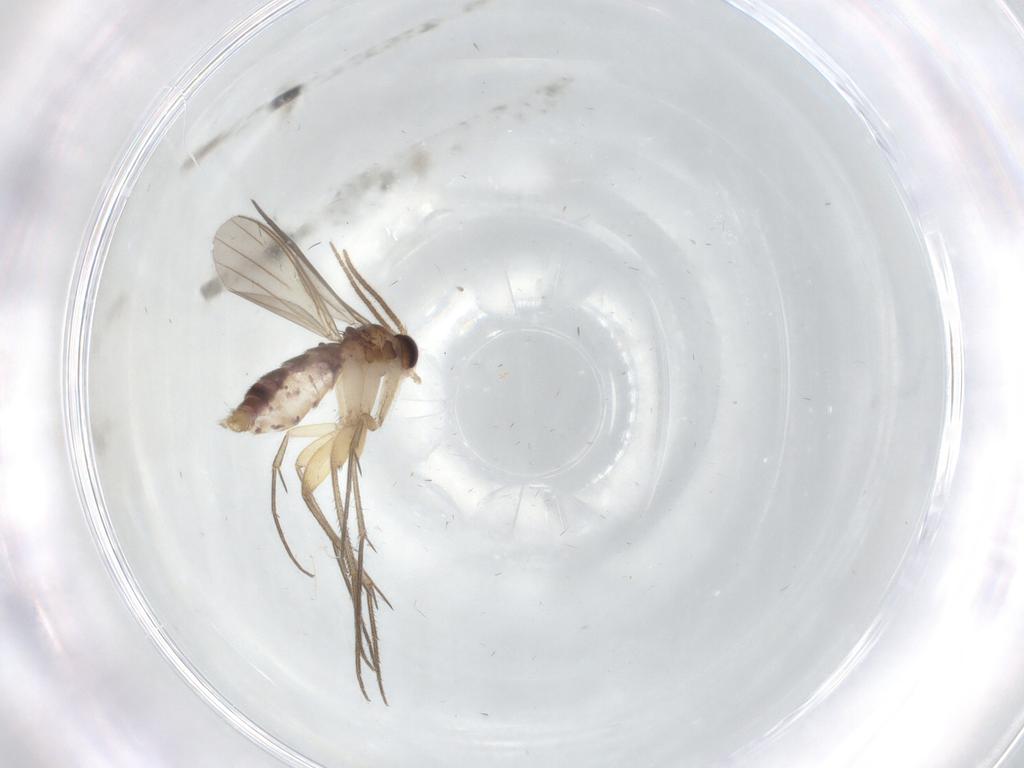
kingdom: Animalia
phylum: Arthropoda
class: Insecta
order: Diptera
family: Mycetophilidae
